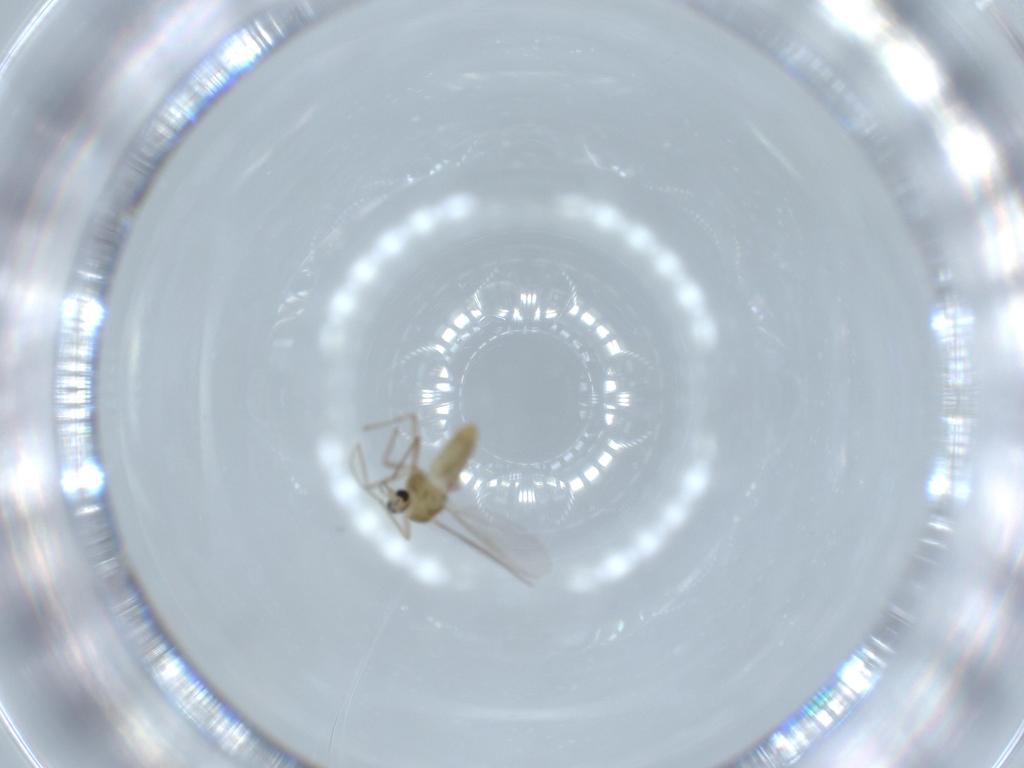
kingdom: Animalia
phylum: Arthropoda
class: Insecta
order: Diptera
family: Chironomidae
